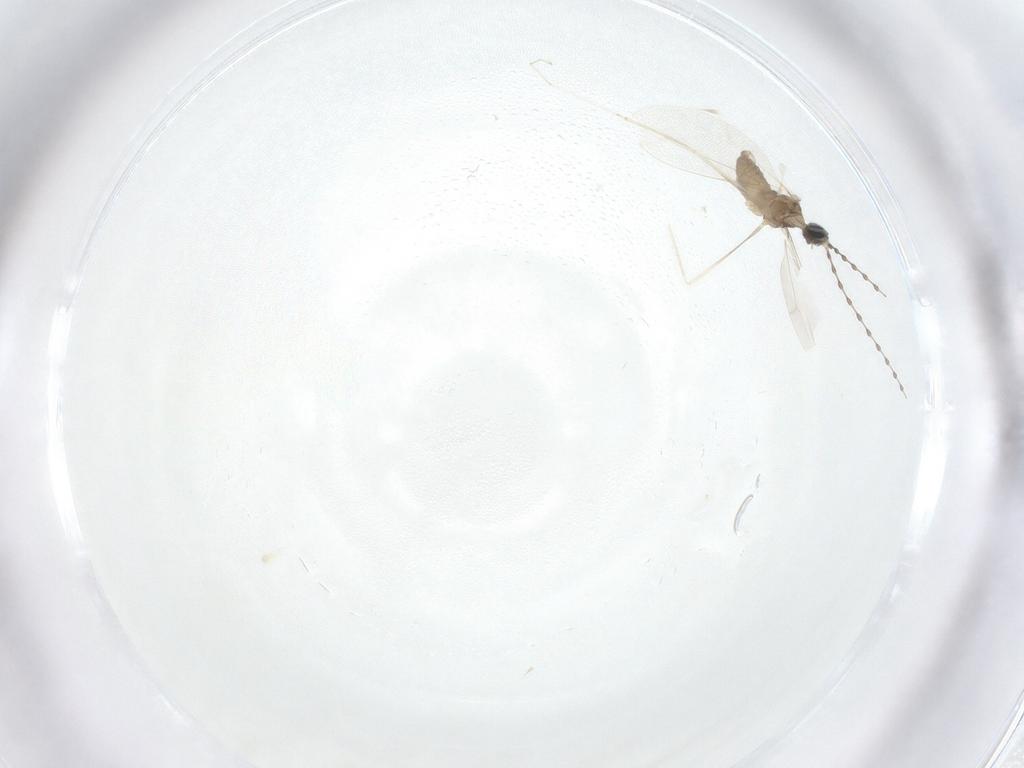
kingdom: Animalia
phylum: Arthropoda
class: Insecta
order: Diptera
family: Cecidomyiidae
